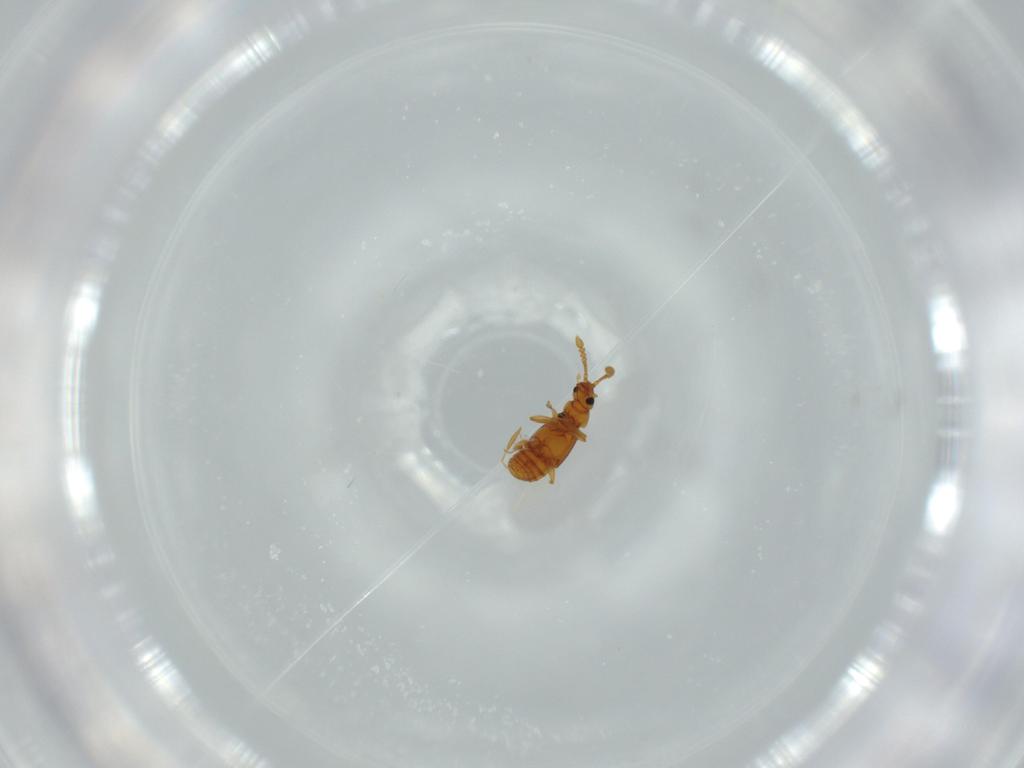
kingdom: Animalia
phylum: Arthropoda
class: Insecta
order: Coleoptera
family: Staphylinidae
